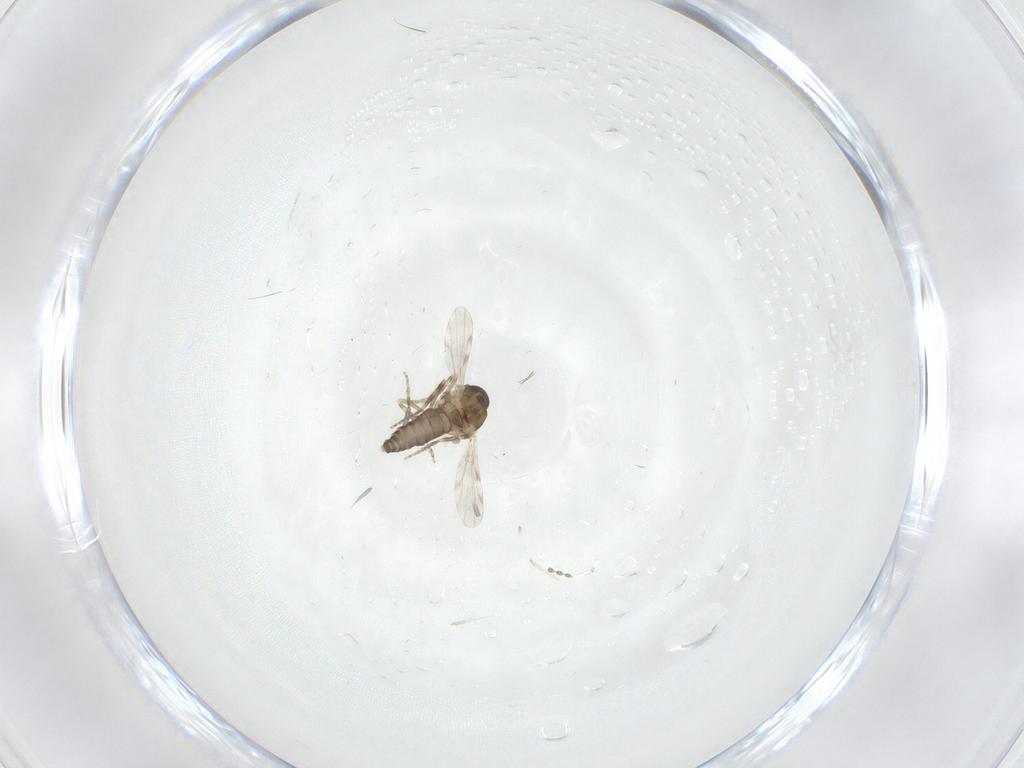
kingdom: Animalia
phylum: Arthropoda
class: Insecta
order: Diptera
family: Ceratopogonidae
